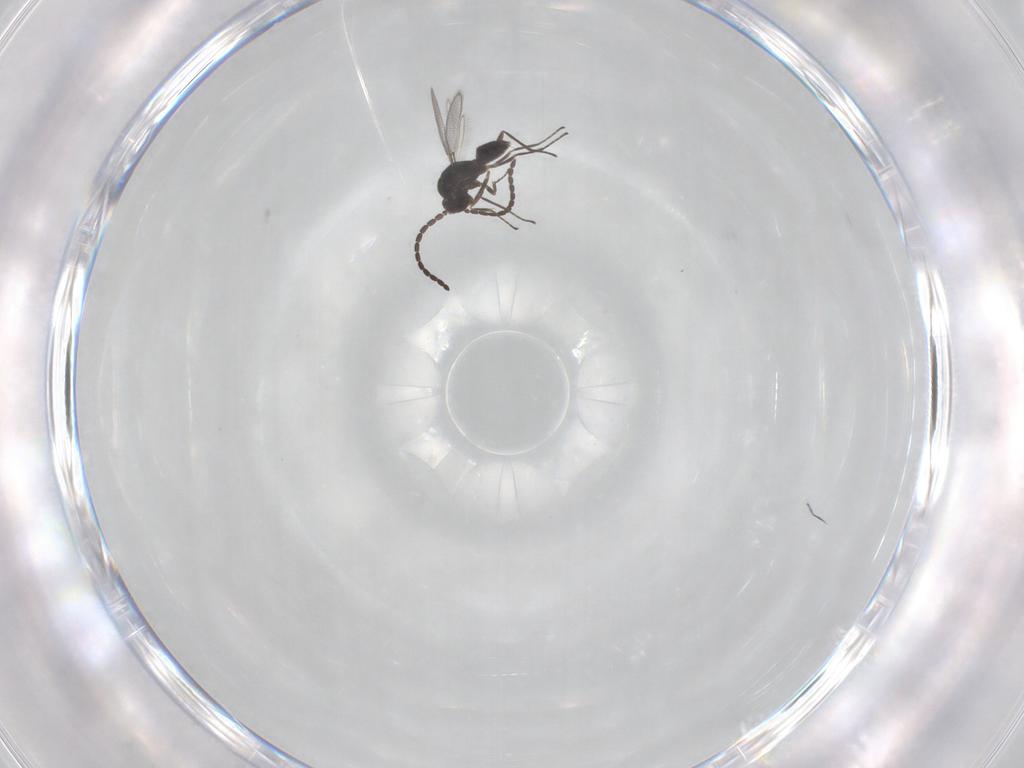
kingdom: Animalia
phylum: Arthropoda
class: Insecta
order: Hymenoptera
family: Mymaridae
